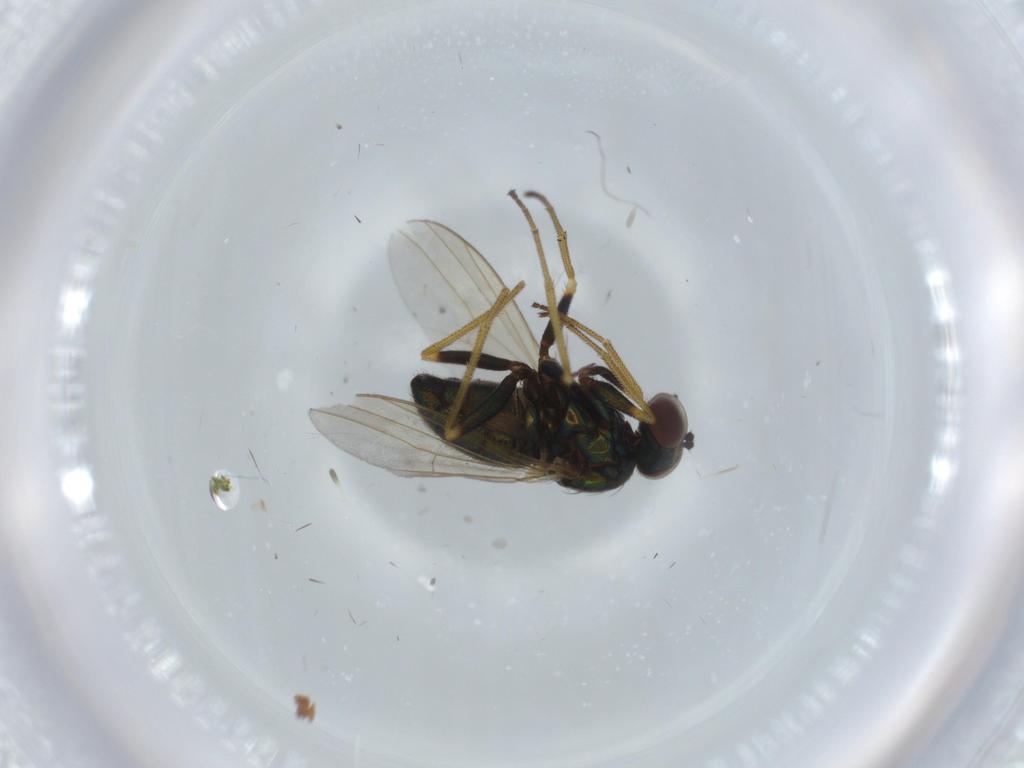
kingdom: Animalia
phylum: Arthropoda
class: Insecta
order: Diptera
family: Dolichopodidae
